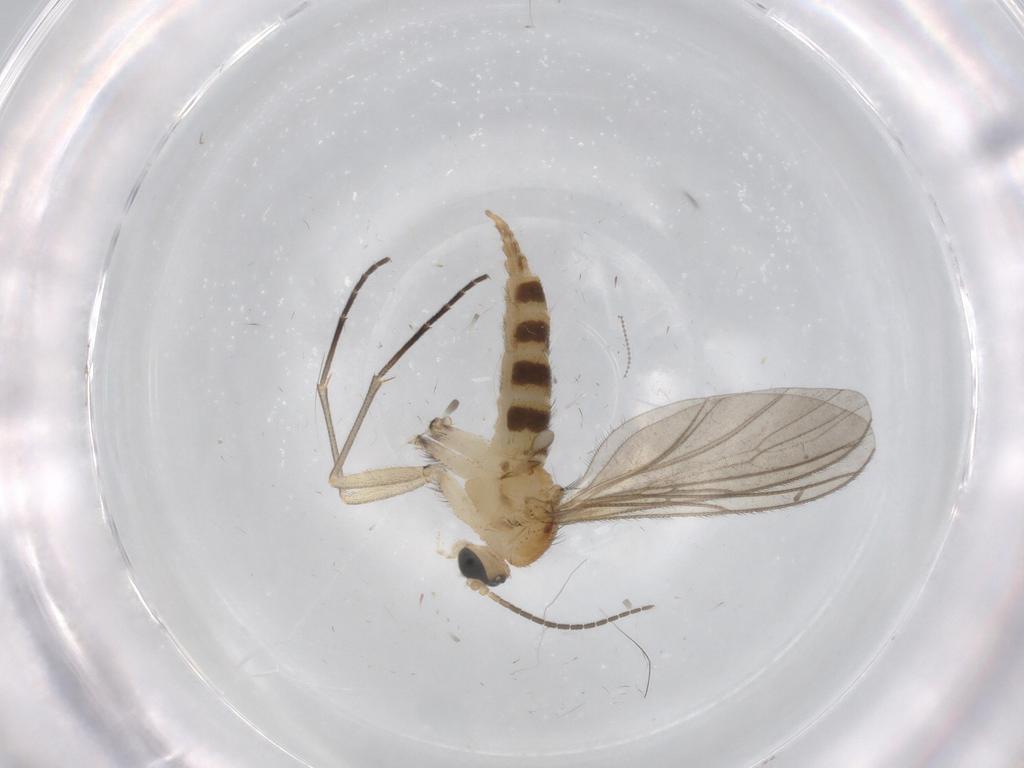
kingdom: Animalia
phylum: Arthropoda
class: Insecta
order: Diptera
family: Sciaridae
